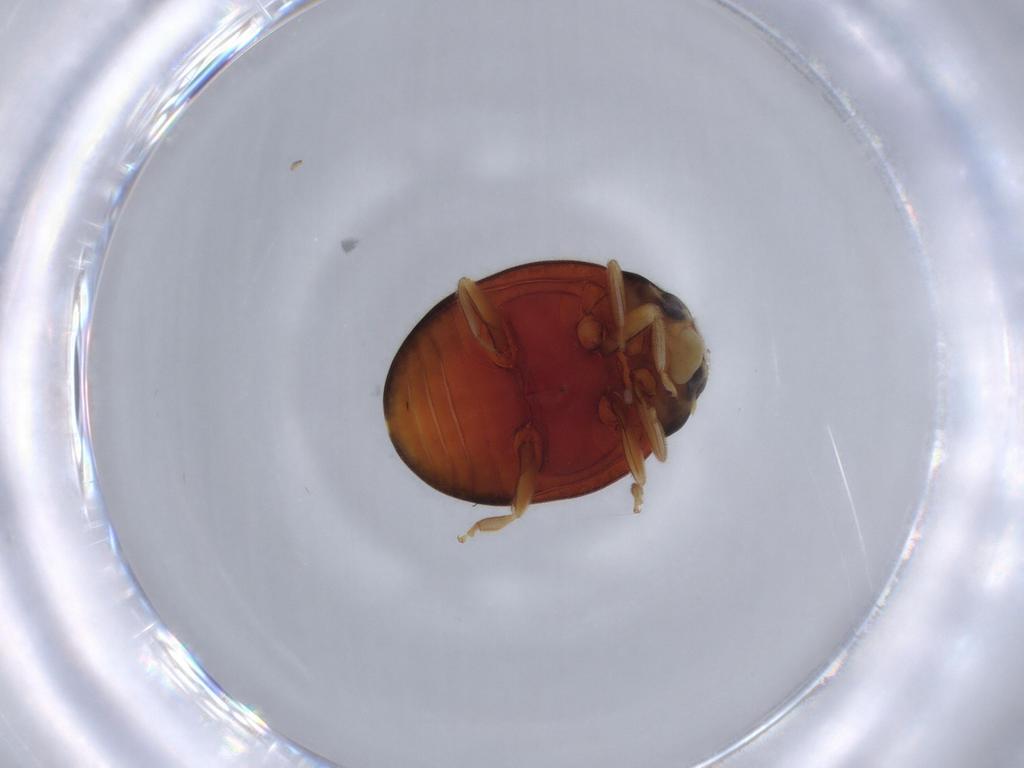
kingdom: Animalia
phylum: Arthropoda
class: Insecta
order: Coleoptera
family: Coccinellidae
